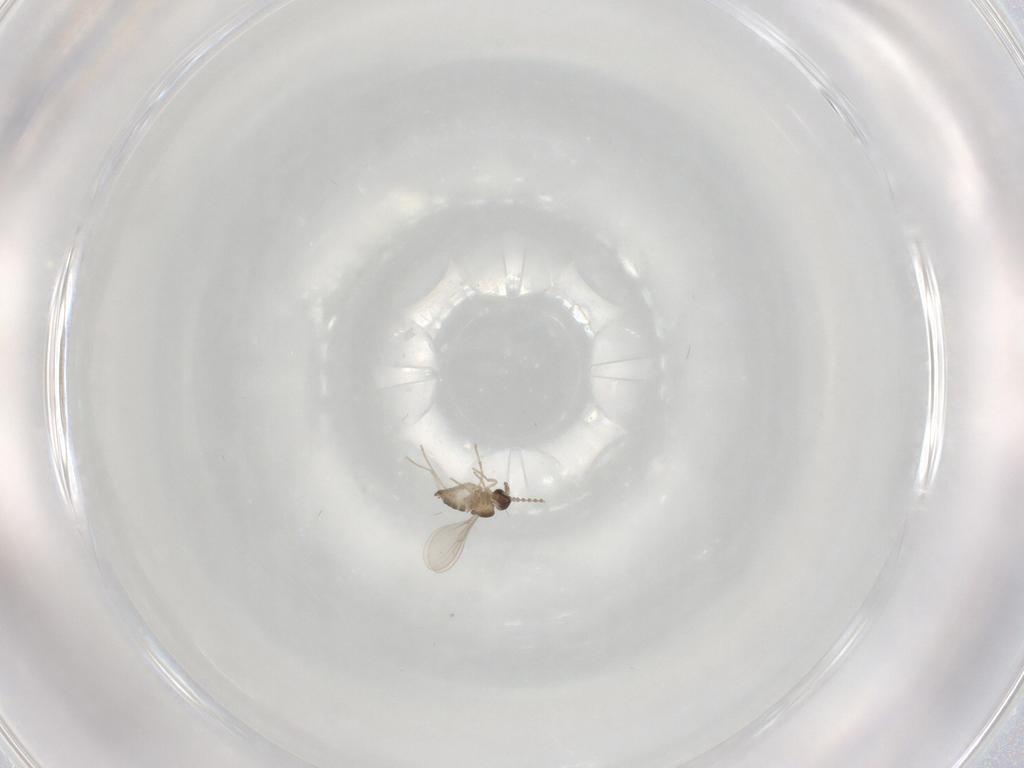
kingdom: Animalia
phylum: Arthropoda
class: Insecta
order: Diptera
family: Cecidomyiidae
